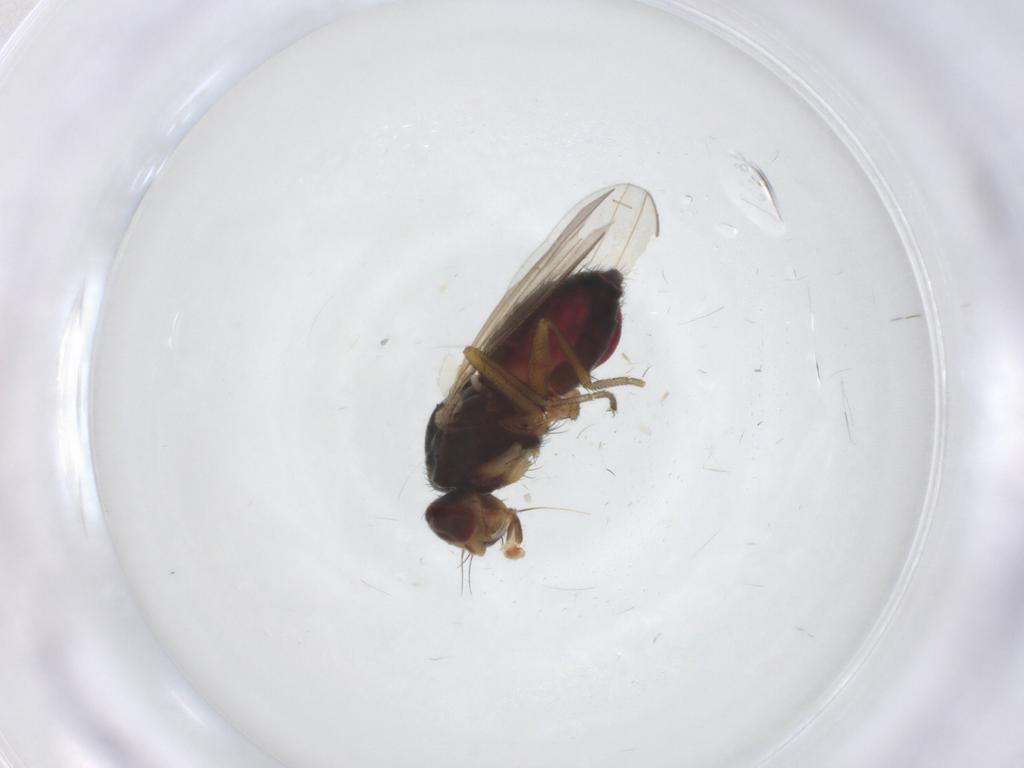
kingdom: Animalia
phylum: Arthropoda
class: Insecta
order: Diptera
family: Heleomyzidae
